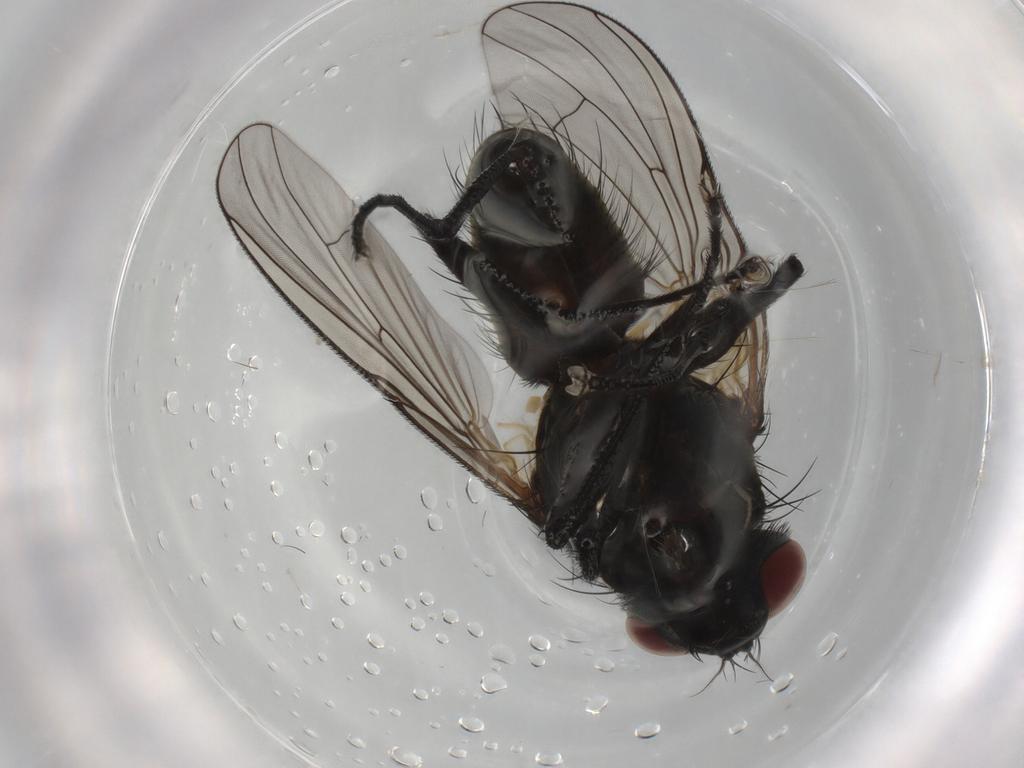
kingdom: Animalia
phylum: Arthropoda
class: Insecta
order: Diptera
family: Muscidae
